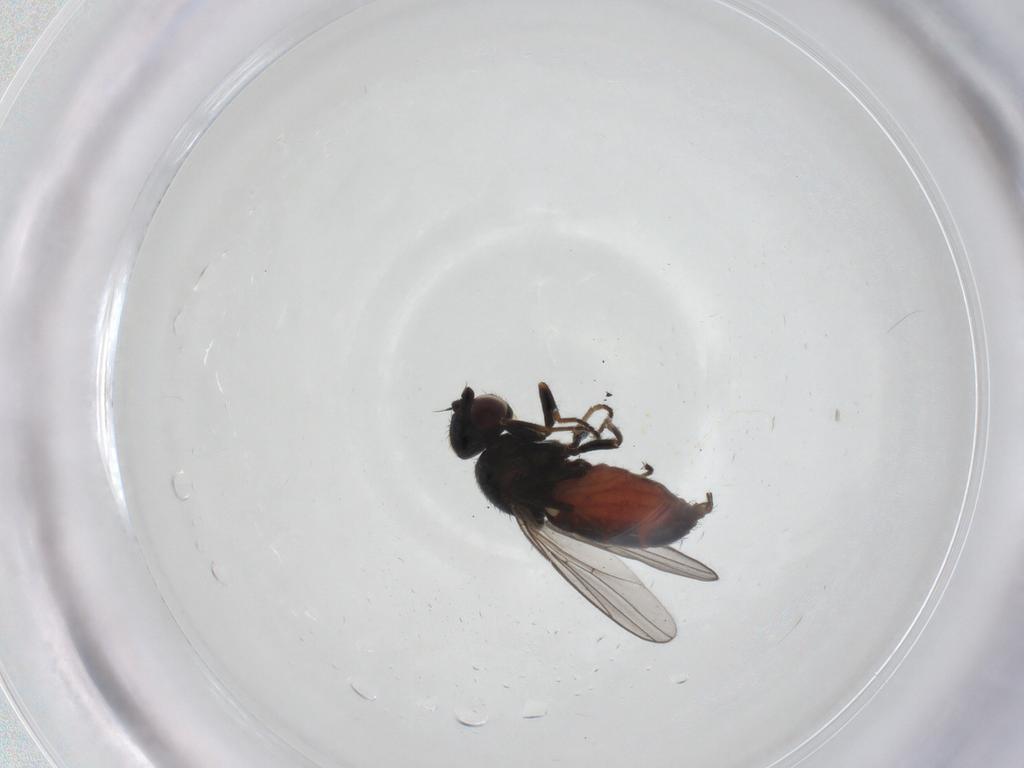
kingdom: Animalia
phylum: Arthropoda
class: Insecta
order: Diptera
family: Chloropidae
